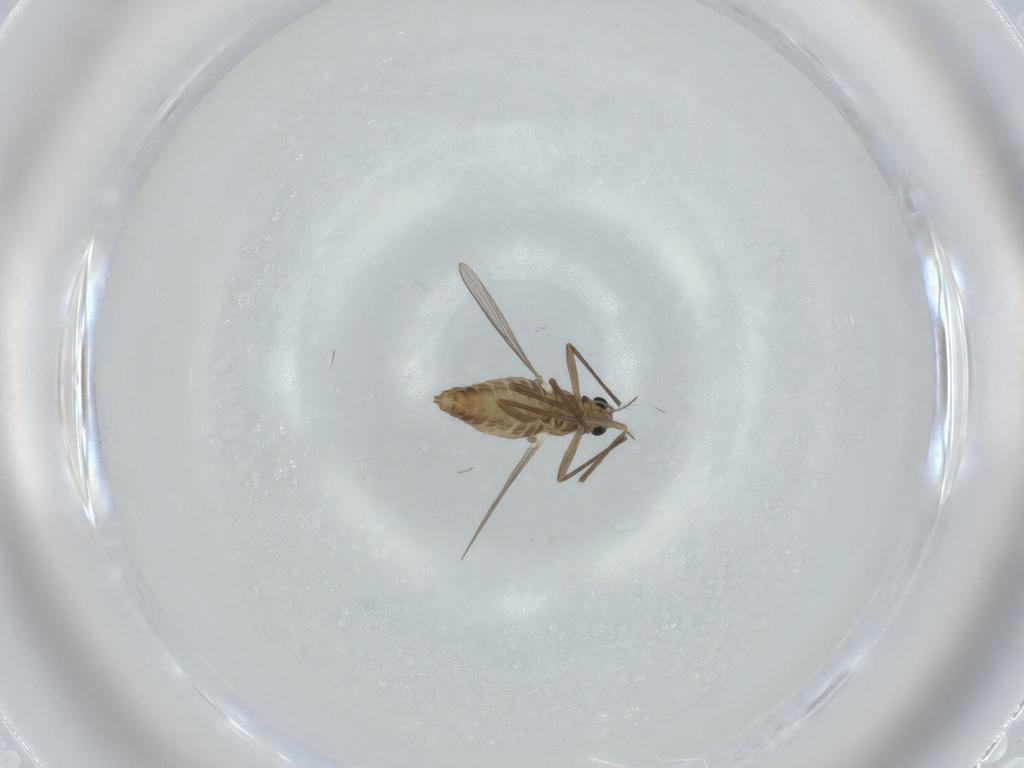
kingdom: Animalia
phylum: Arthropoda
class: Insecta
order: Diptera
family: Chironomidae
